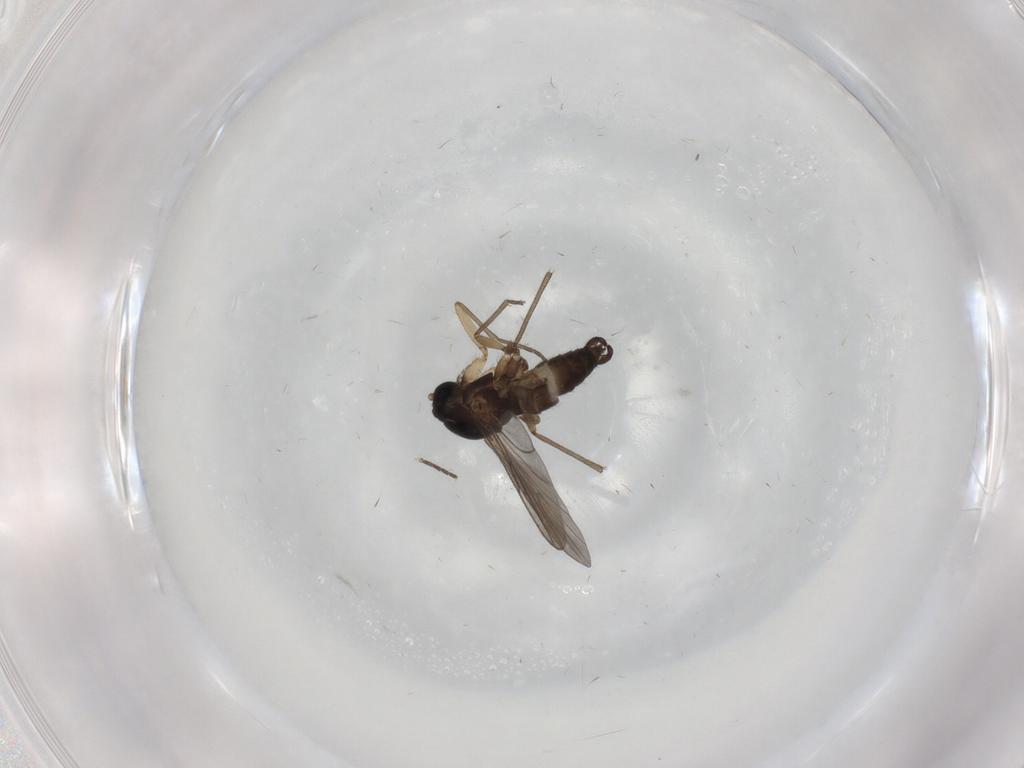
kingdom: Animalia
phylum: Arthropoda
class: Insecta
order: Diptera
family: Sciaridae
